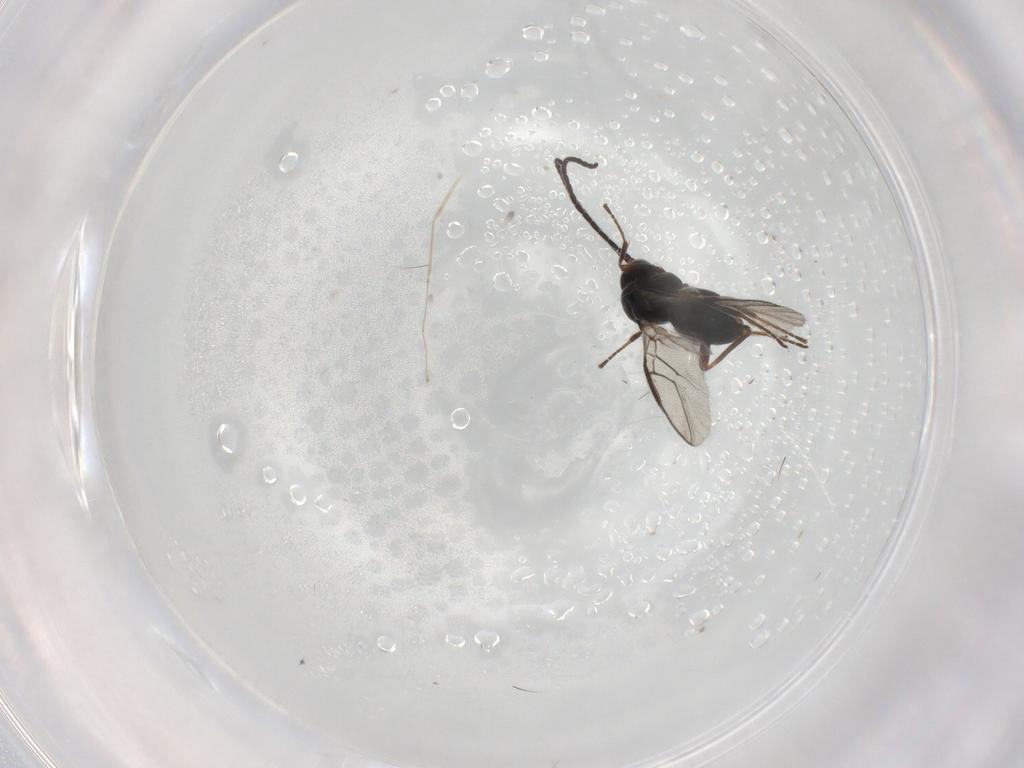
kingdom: Animalia
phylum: Arthropoda
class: Insecta
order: Hymenoptera
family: Braconidae
